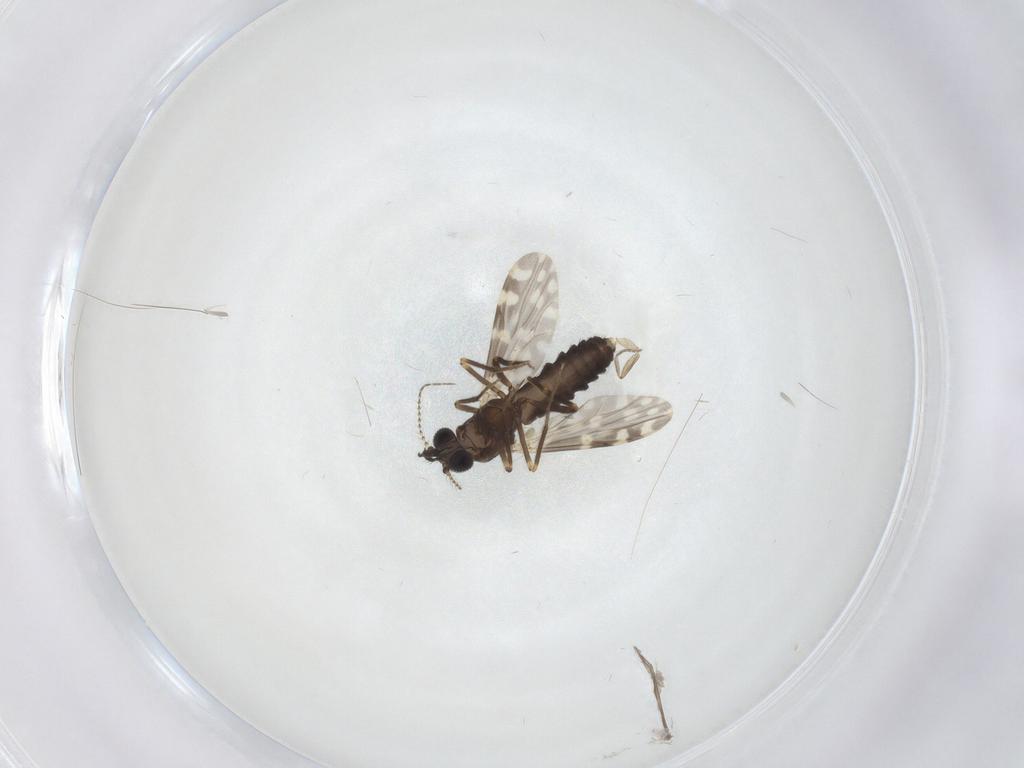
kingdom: Animalia
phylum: Arthropoda
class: Insecta
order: Diptera
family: Ceratopogonidae
